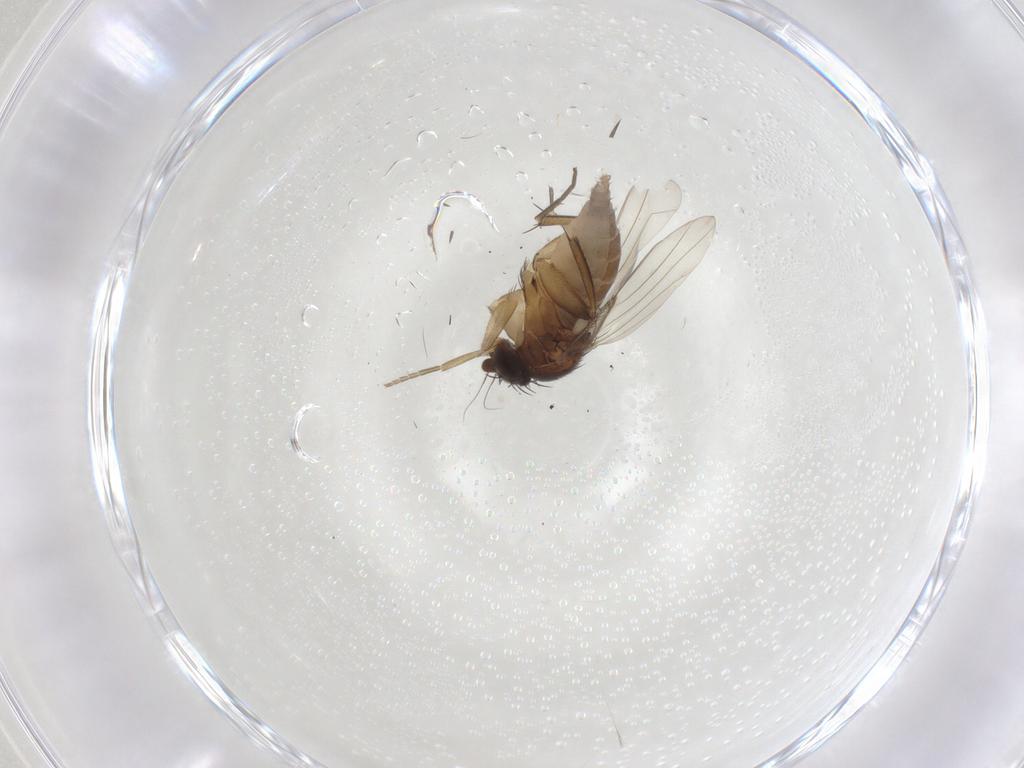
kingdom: Animalia
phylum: Arthropoda
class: Insecta
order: Diptera
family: Phoridae
